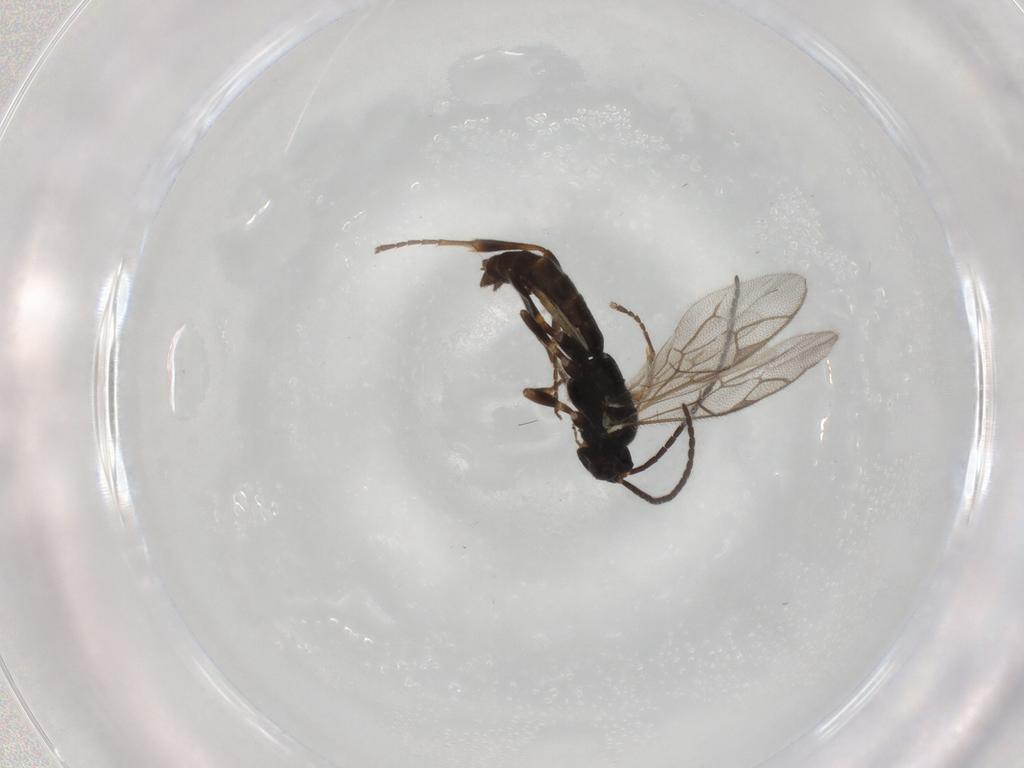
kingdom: Animalia
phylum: Arthropoda
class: Insecta
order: Hymenoptera
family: Ichneumonidae
